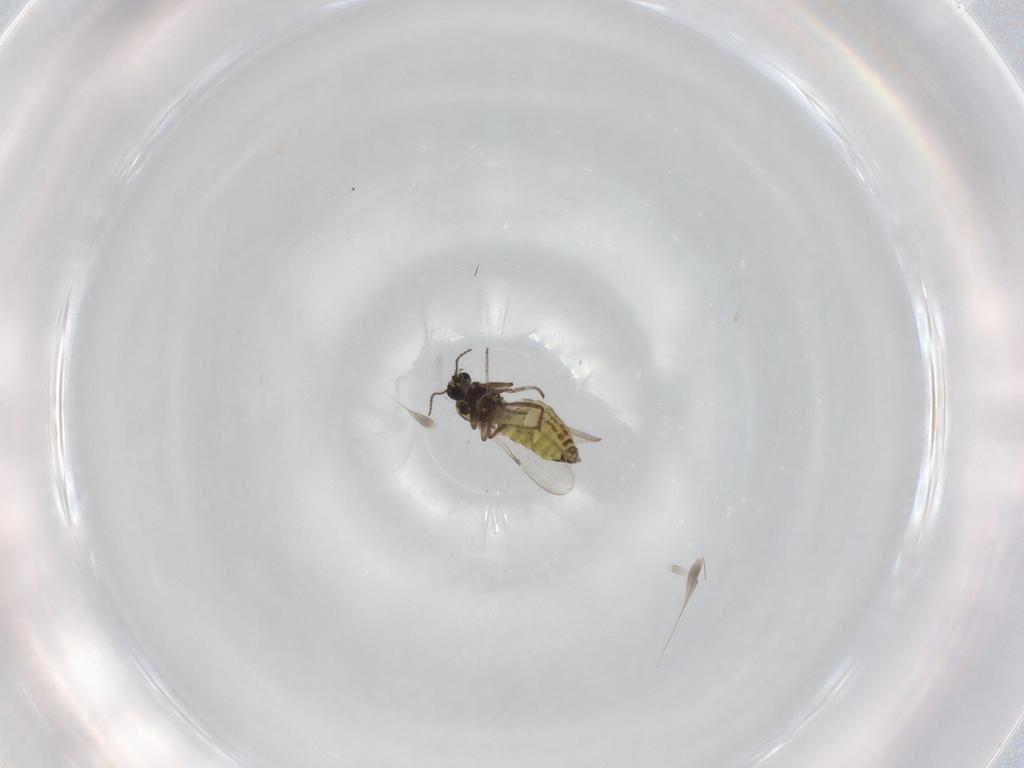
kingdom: Animalia
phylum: Arthropoda
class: Insecta
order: Diptera
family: Ceratopogonidae
